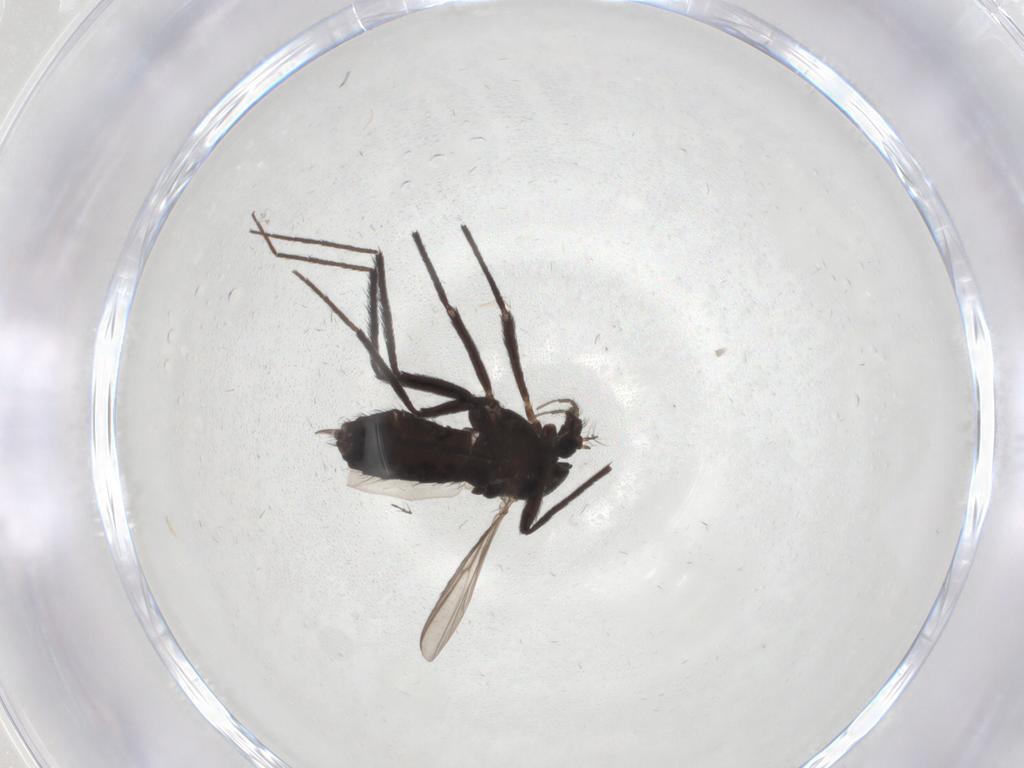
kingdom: Animalia
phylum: Arthropoda
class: Insecta
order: Diptera
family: Chironomidae
